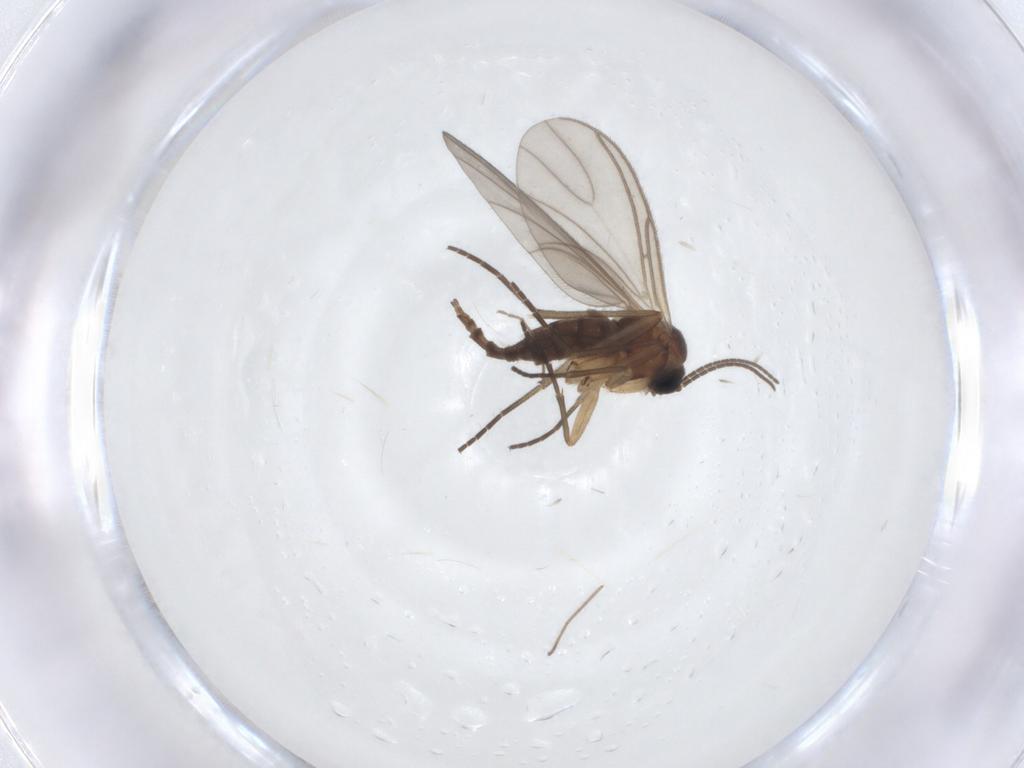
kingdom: Animalia
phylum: Arthropoda
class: Insecta
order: Diptera
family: Sciaridae
